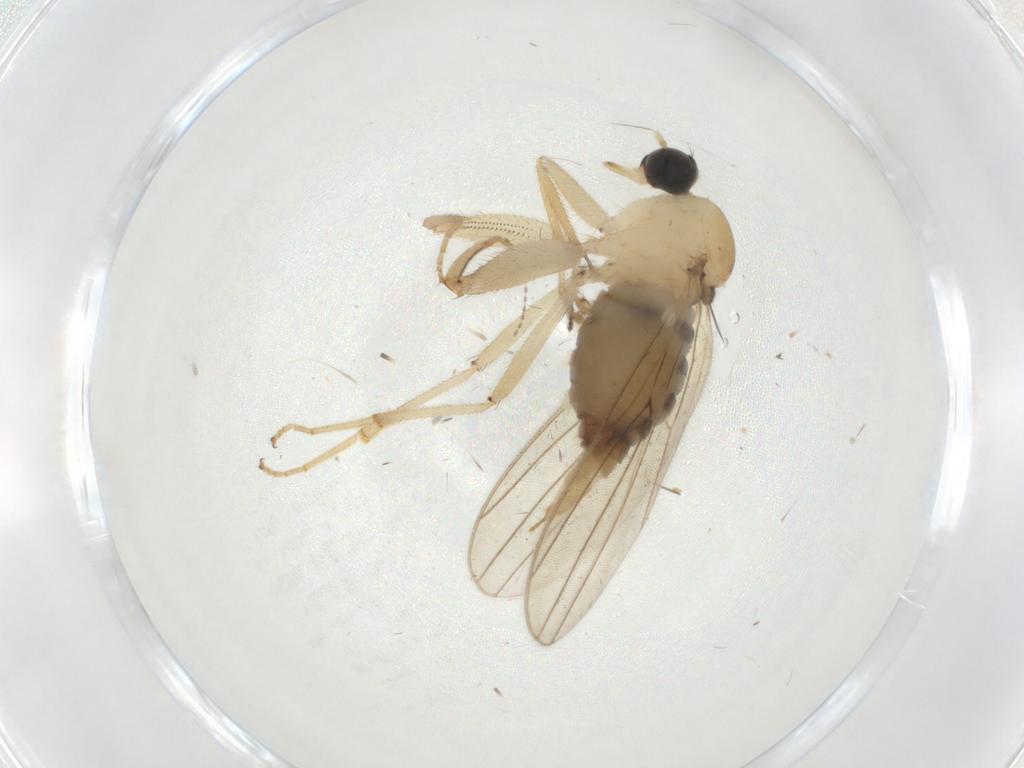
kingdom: Animalia
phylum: Arthropoda
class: Insecta
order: Diptera
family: Hybotidae
